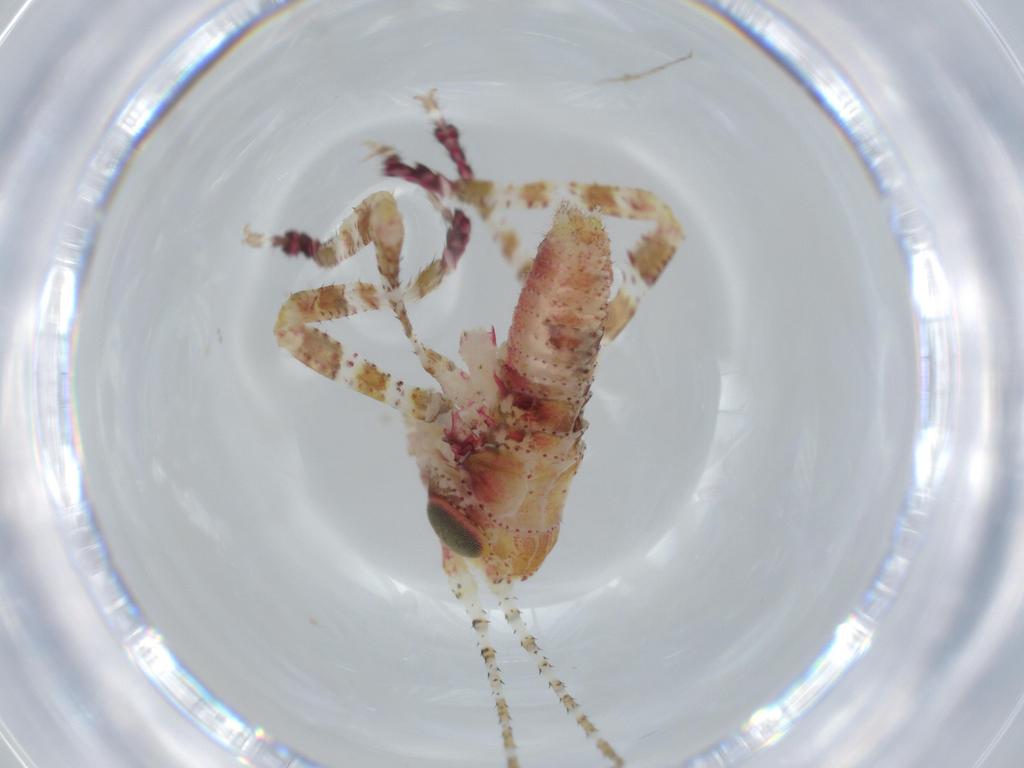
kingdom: Animalia
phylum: Arthropoda
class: Insecta
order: Orthoptera
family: Tettigoniidae
